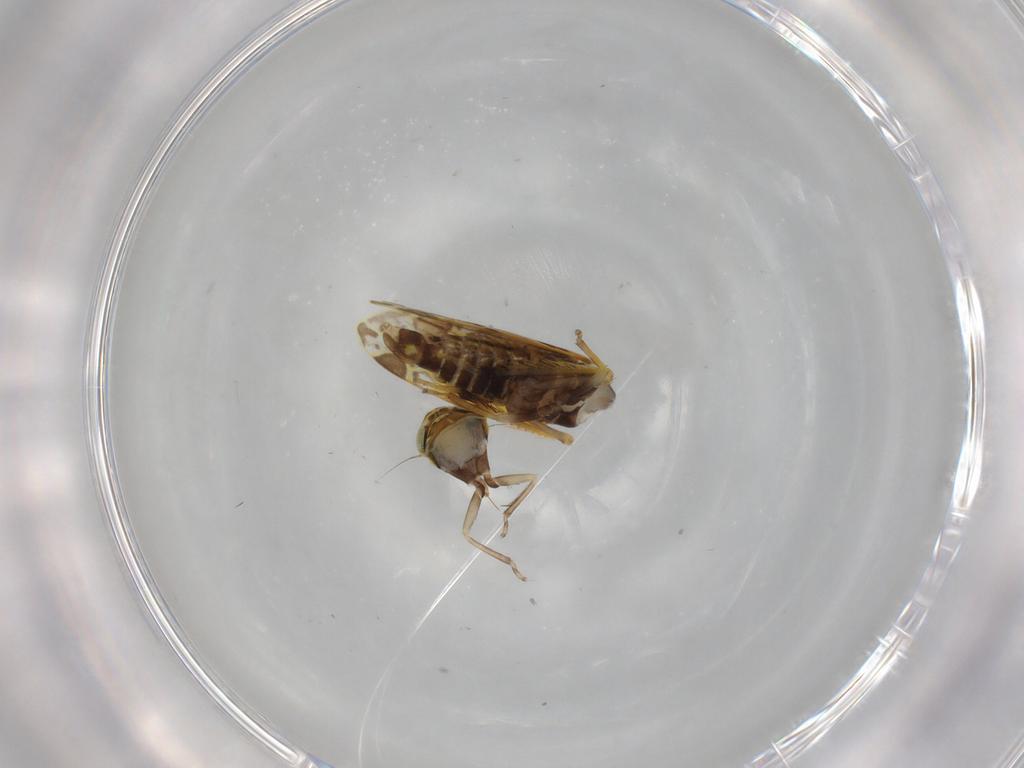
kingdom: Animalia
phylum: Arthropoda
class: Insecta
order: Hemiptera
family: Cicadellidae
